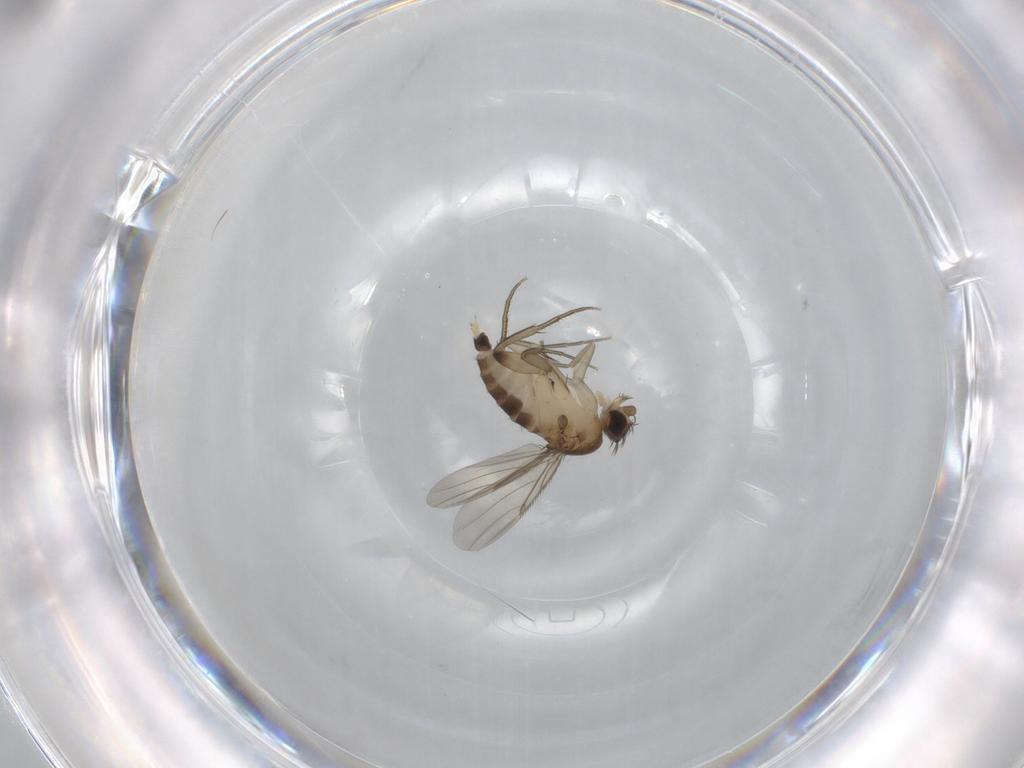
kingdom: Animalia
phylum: Arthropoda
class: Insecta
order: Diptera
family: Phoridae
